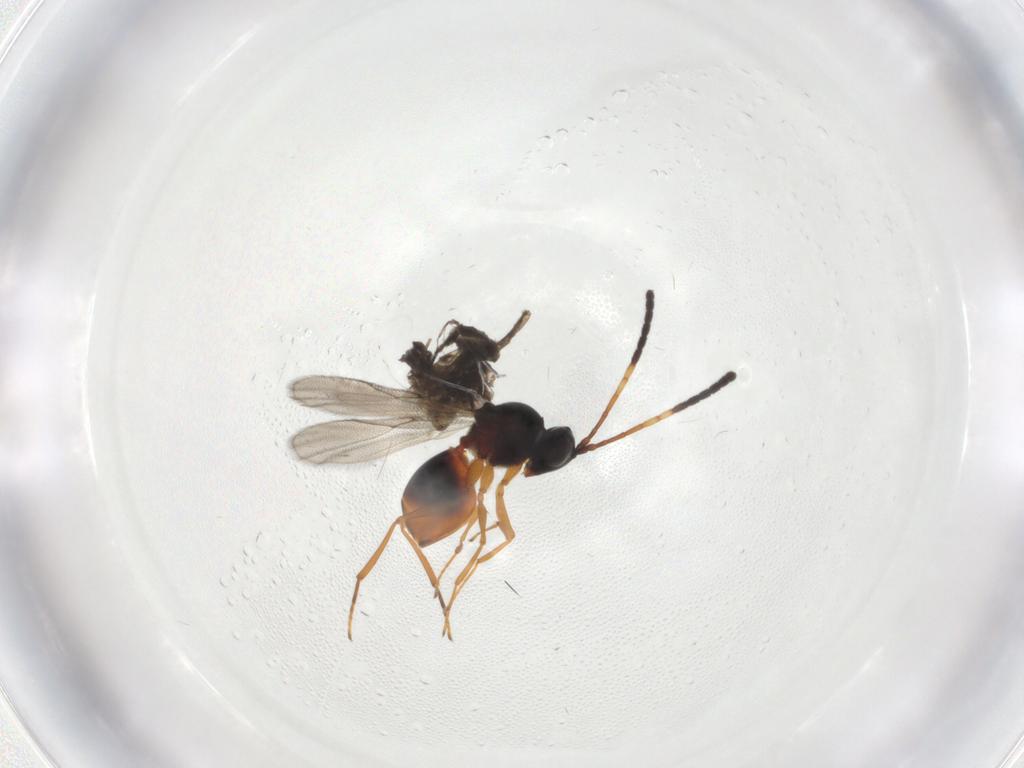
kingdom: Animalia
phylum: Arthropoda
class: Insecta
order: Hymenoptera
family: Figitidae
